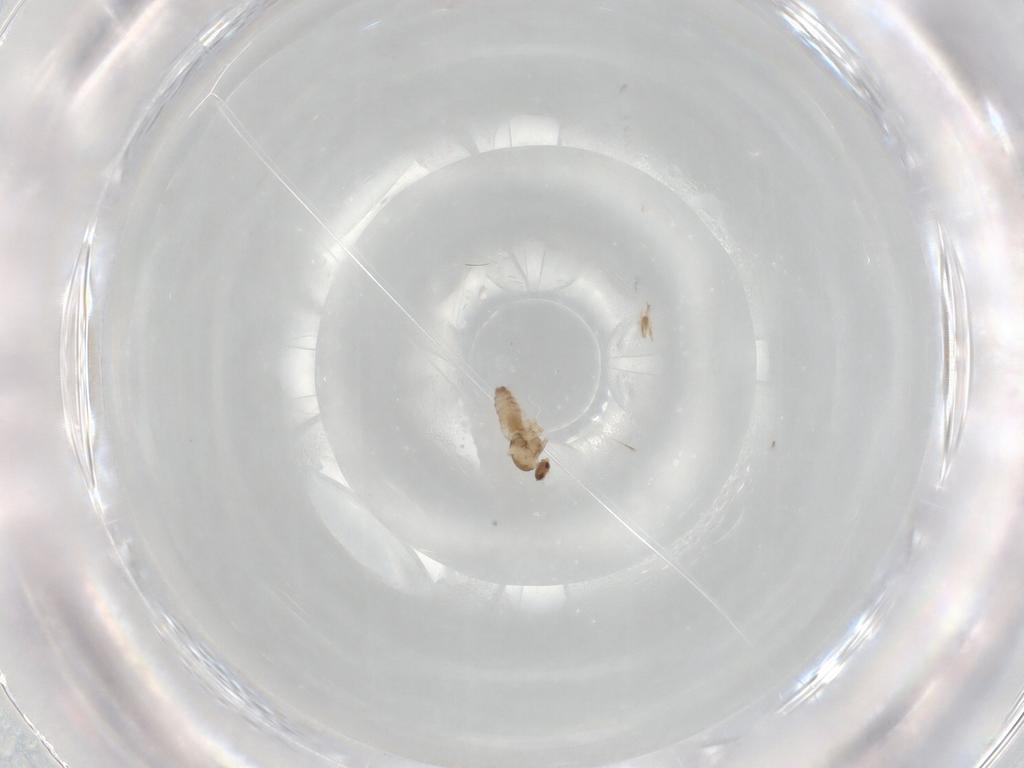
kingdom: Animalia
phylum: Arthropoda
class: Insecta
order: Diptera
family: Cecidomyiidae
